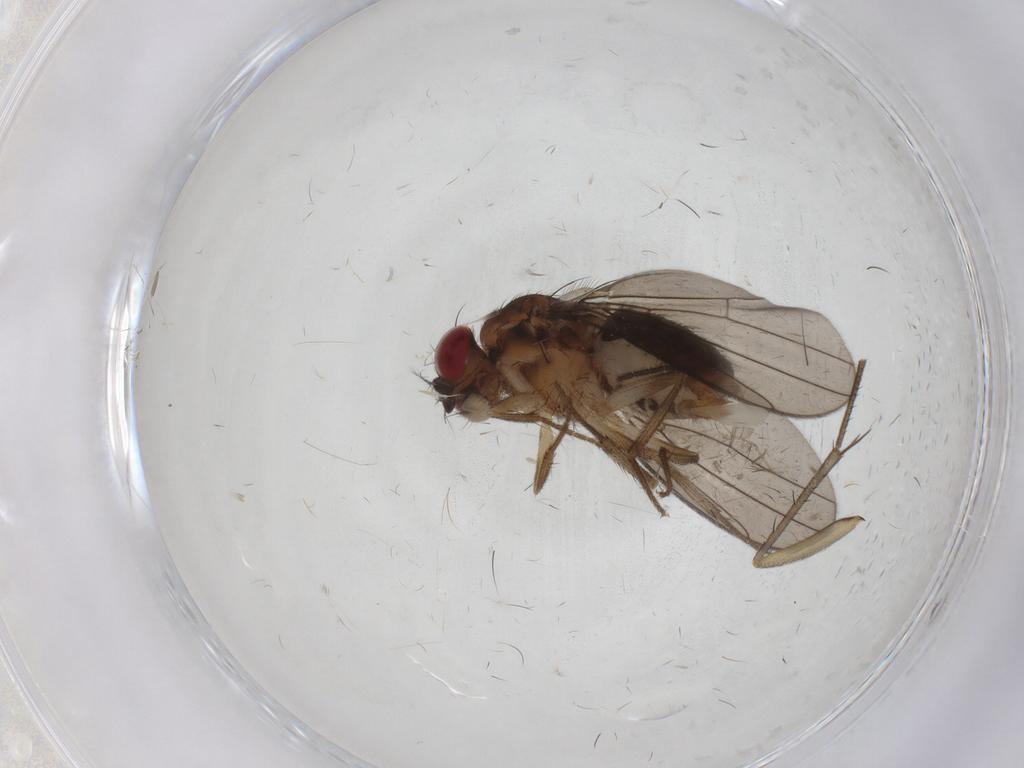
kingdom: Animalia
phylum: Arthropoda
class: Insecta
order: Diptera
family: Drosophilidae
